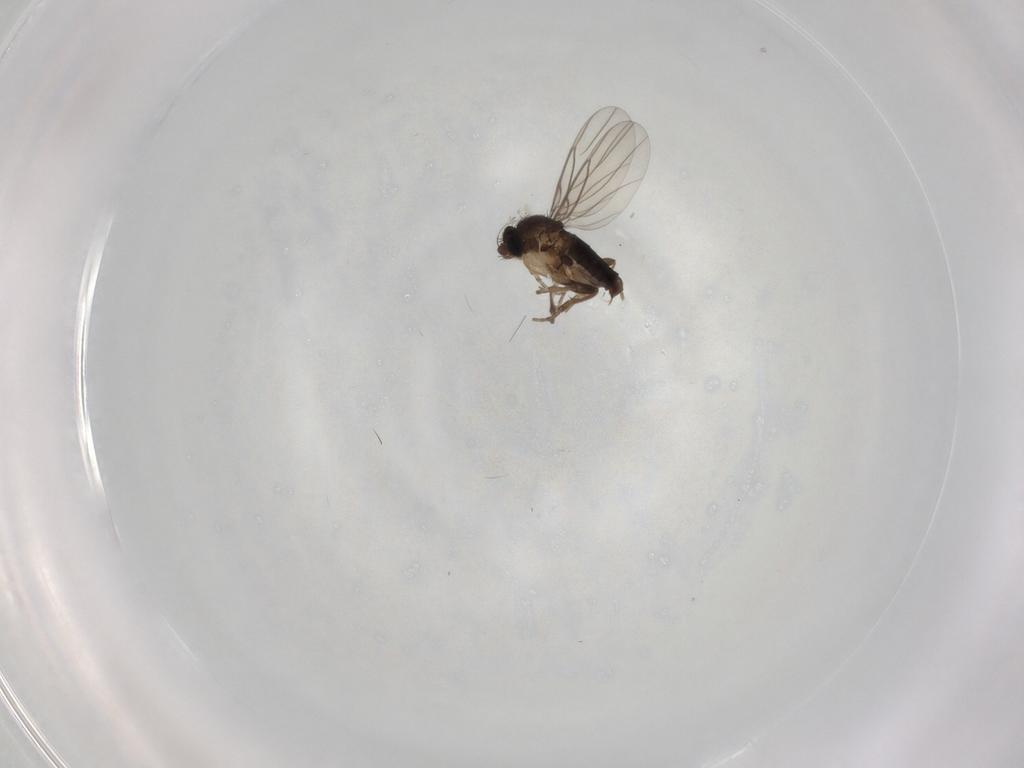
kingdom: Animalia
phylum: Arthropoda
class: Insecta
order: Diptera
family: Phoridae
